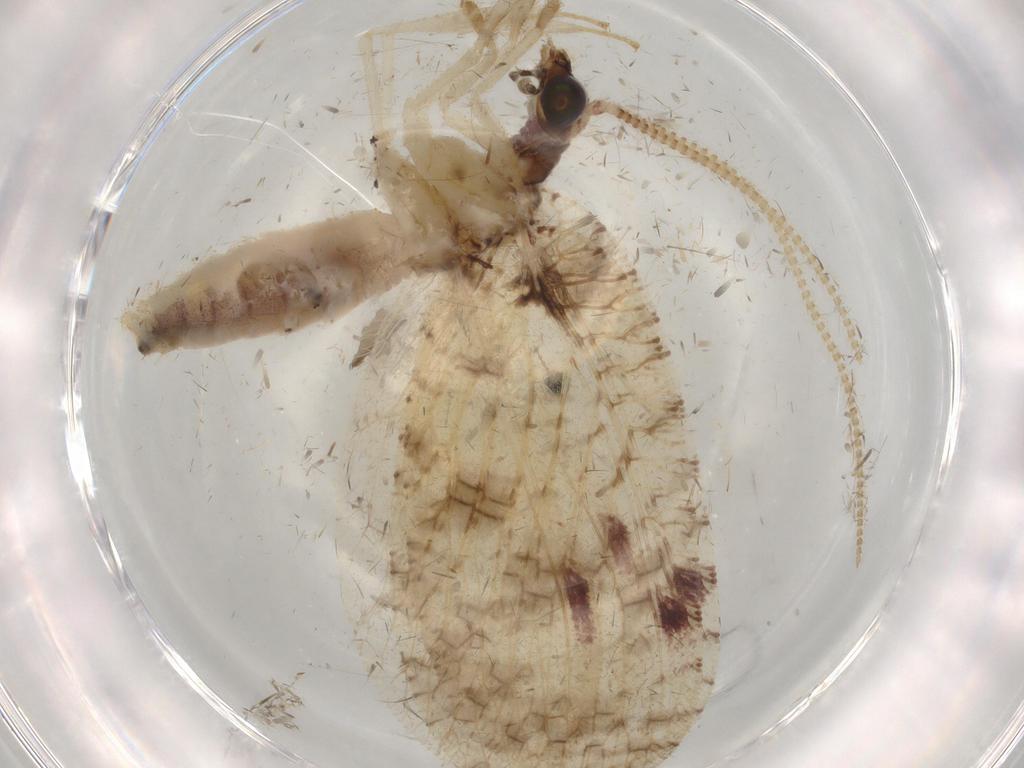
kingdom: Animalia
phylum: Arthropoda
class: Insecta
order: Neuroptera
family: Hemerobiidae
